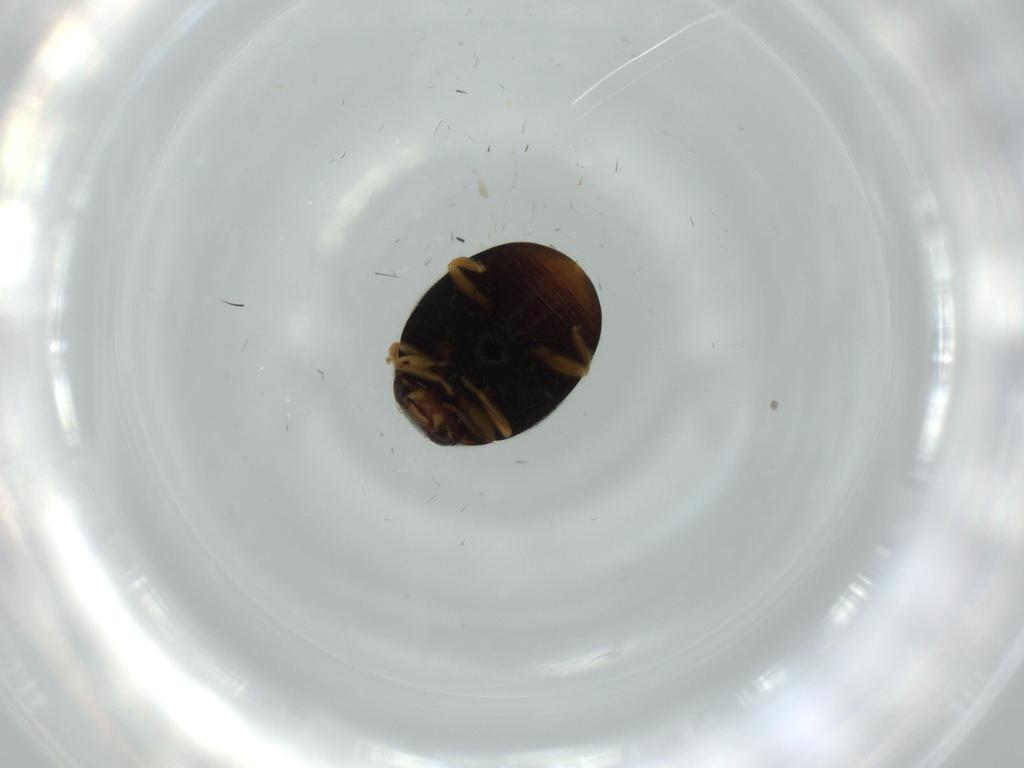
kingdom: Animalia
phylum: Arthropoda
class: Insecta
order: Coleoptera
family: Coccinellidae
